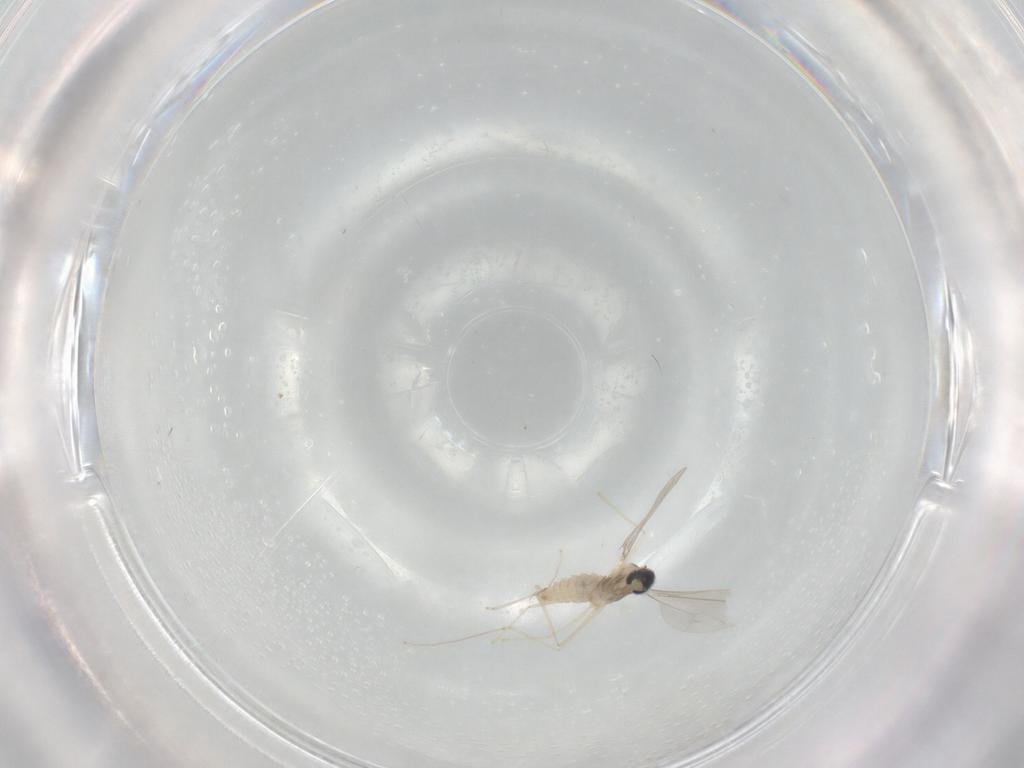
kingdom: Animalia
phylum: Arthropoda
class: Insecta
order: Diptera
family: Cecidomyiidae
